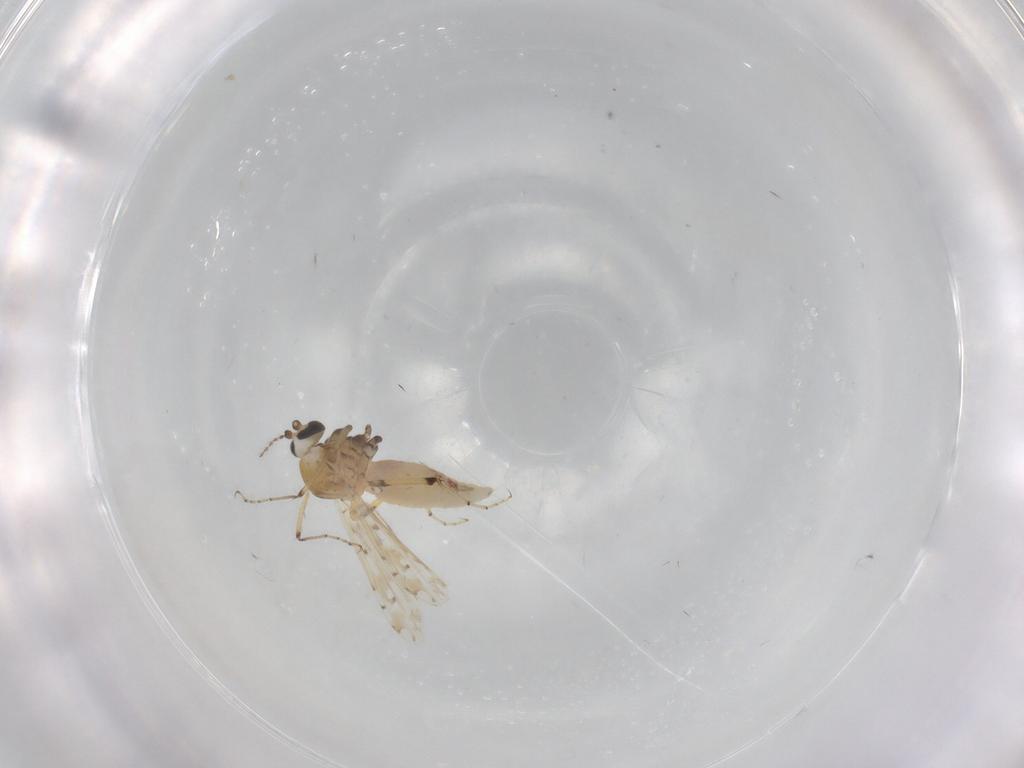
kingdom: Animalia
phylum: Arthropoda
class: Insecta
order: Diptera
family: Ceratopogonidae
